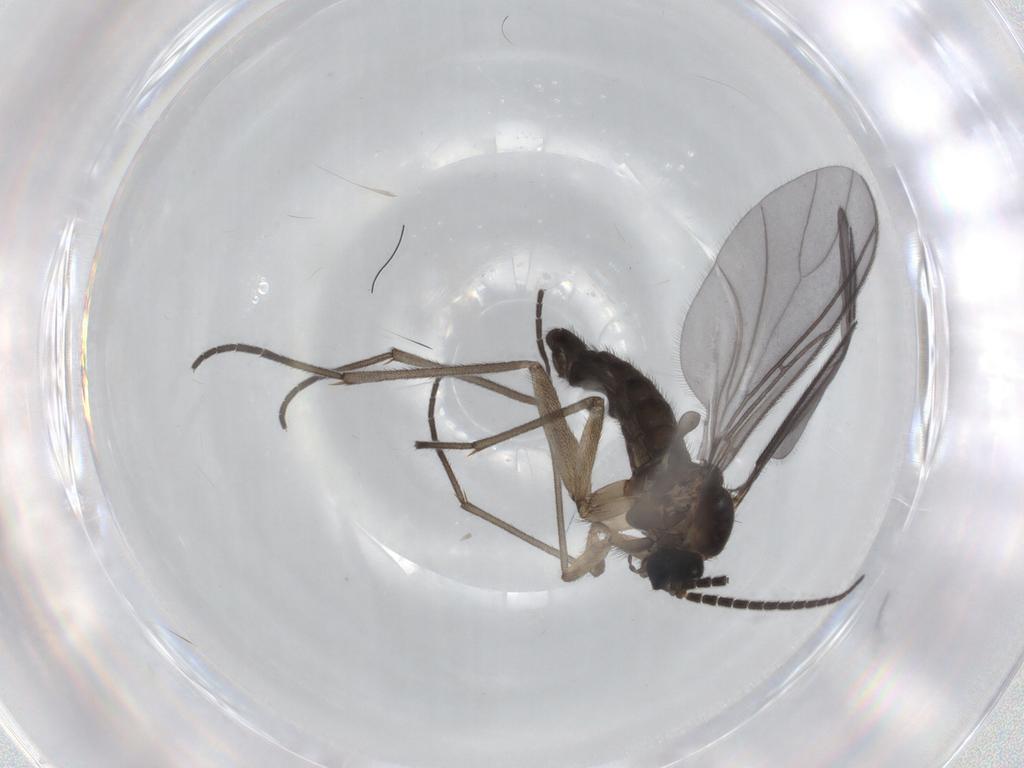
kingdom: Animalia
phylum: Arthropoda
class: Insecta
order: Diptera
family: Sciaridae
